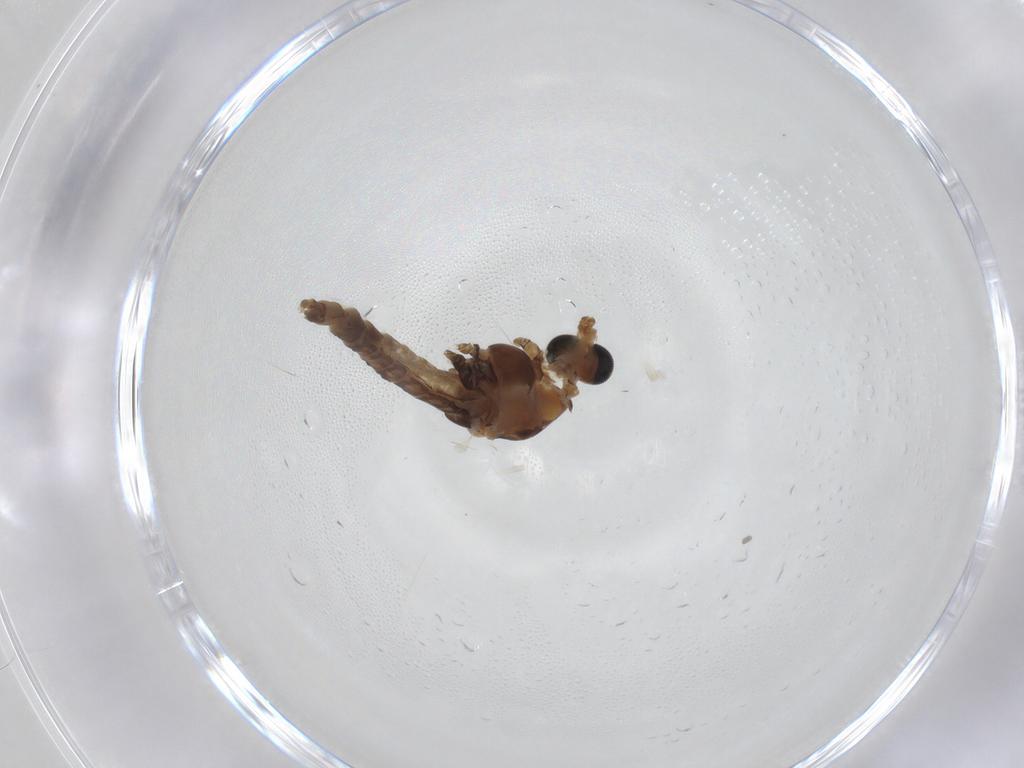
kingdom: Animalia
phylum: Arthropoda
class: Insecta
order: Diptera
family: Chironomidae
